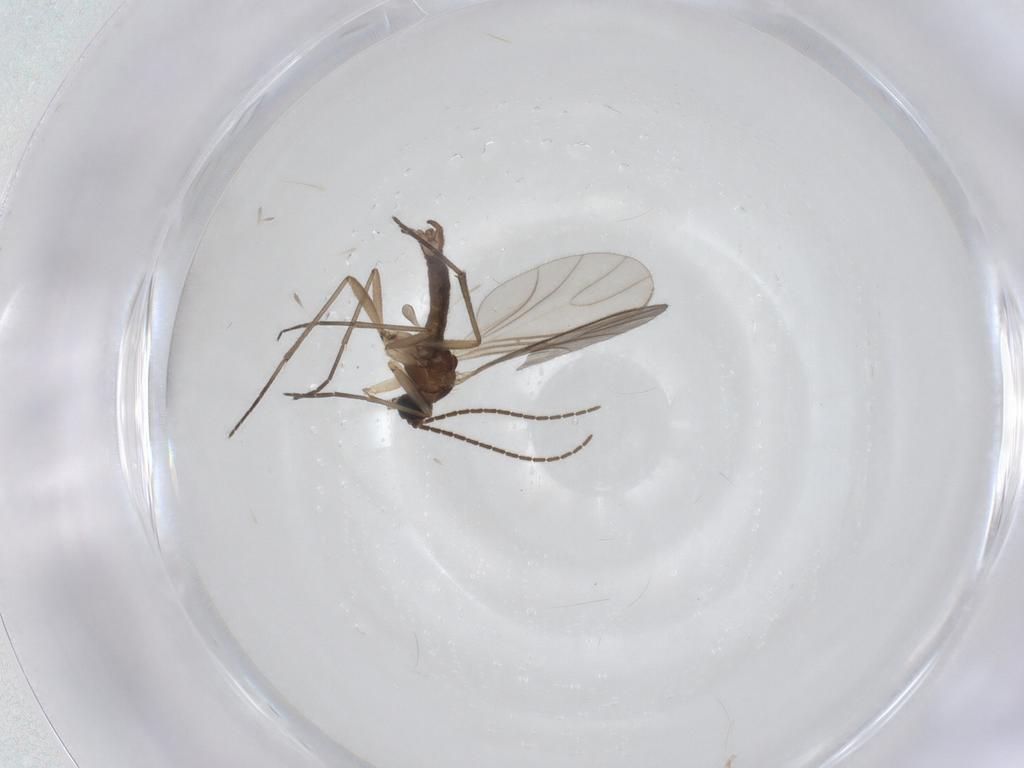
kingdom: Animalia
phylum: Arthropoda
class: Insecta
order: Diptera
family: Sciaridae
